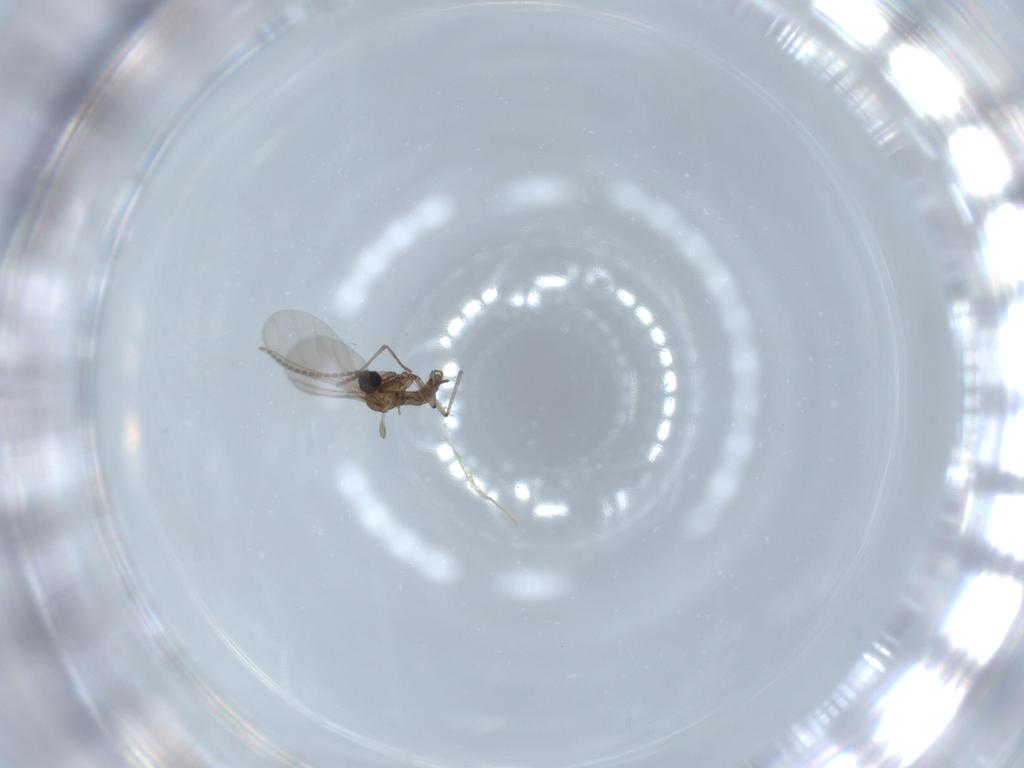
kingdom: Animalia
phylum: Arthropoda
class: Insecta
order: Diptera
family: Sciaridae
